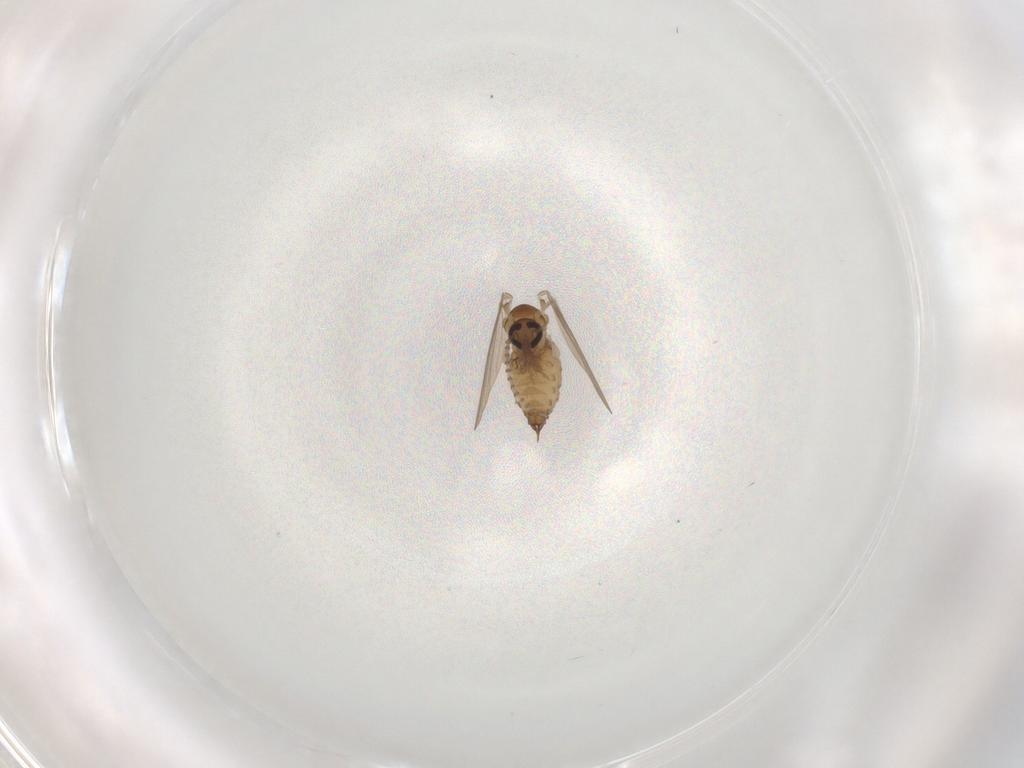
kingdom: Animalia
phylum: Arthropoda
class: Insecta
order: Diptera
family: Psychodidae
